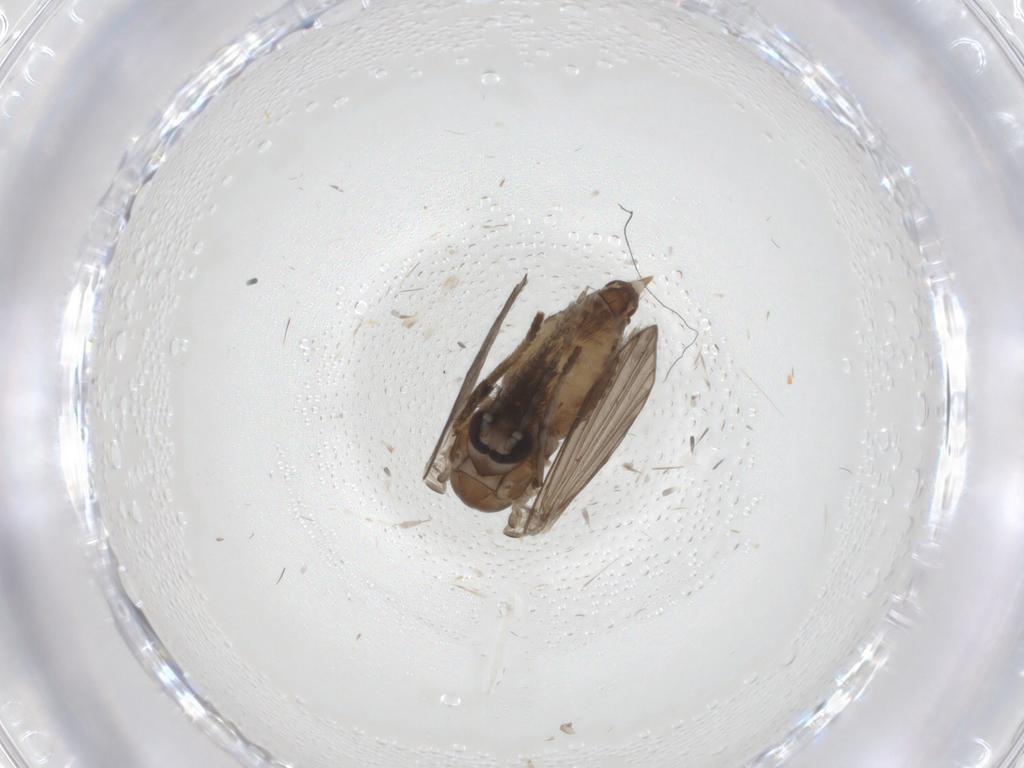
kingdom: Animalia
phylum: Arthropoda
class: Insecta
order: Diptera
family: Psychodidae
